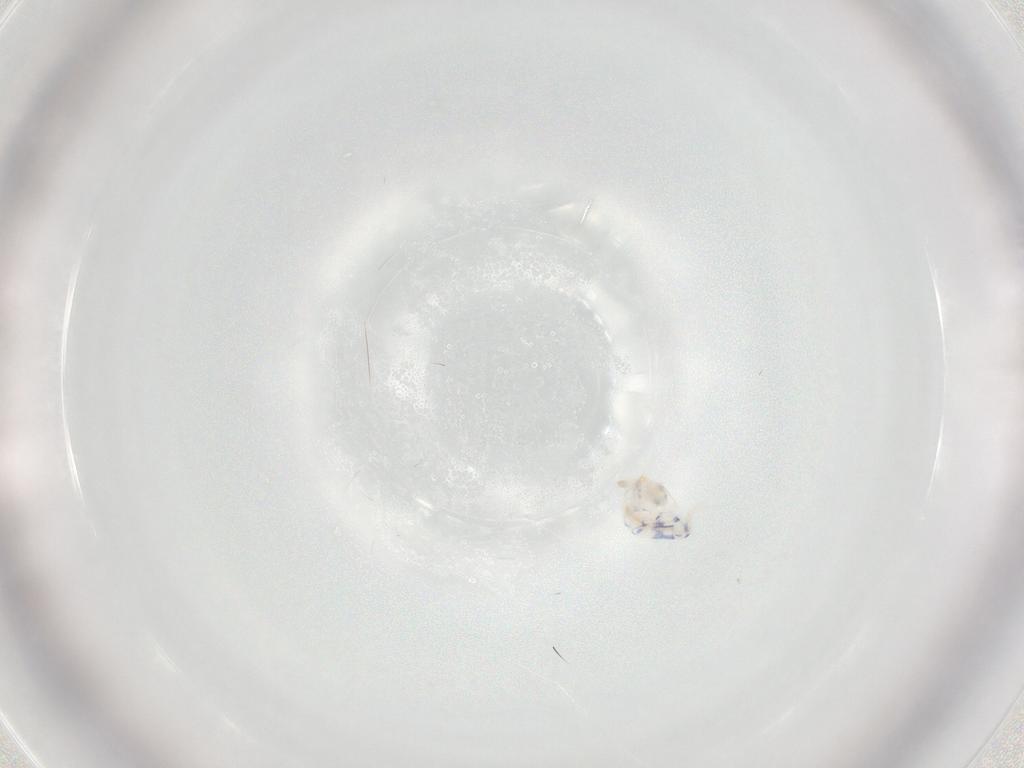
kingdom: Animalia
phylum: Arthropoda
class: Collembola
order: Entomobryomorpha
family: Entomobryidae
